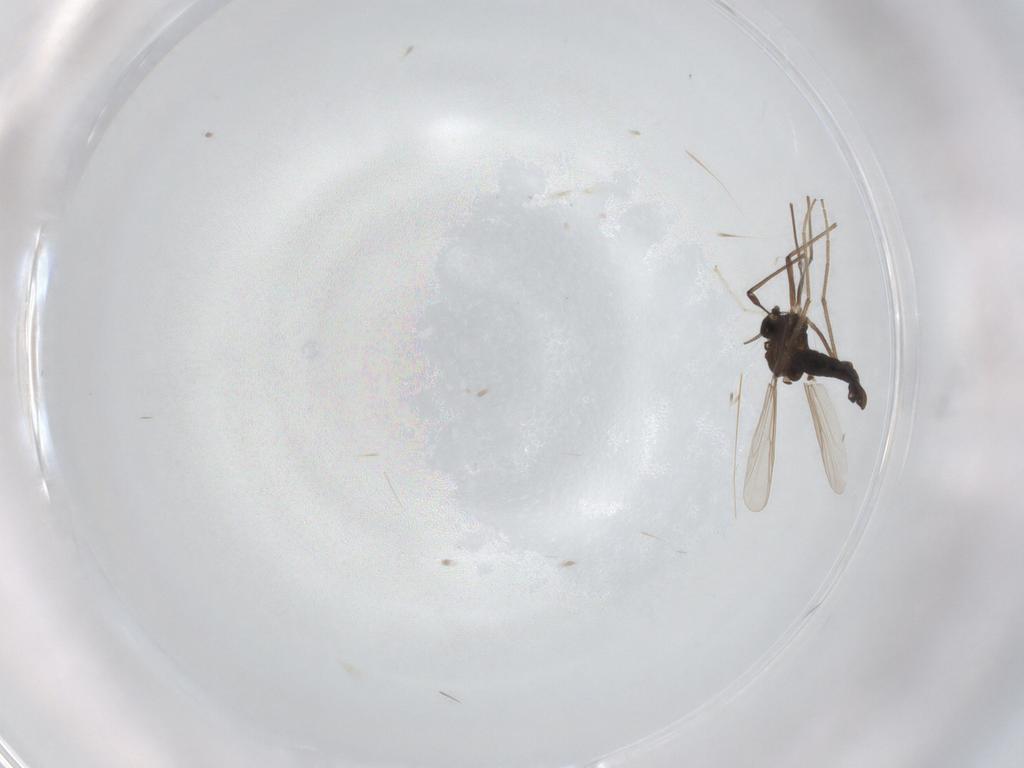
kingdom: Animalia
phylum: Arthropoda
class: Insecta
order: Diptera
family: Chironomidae
